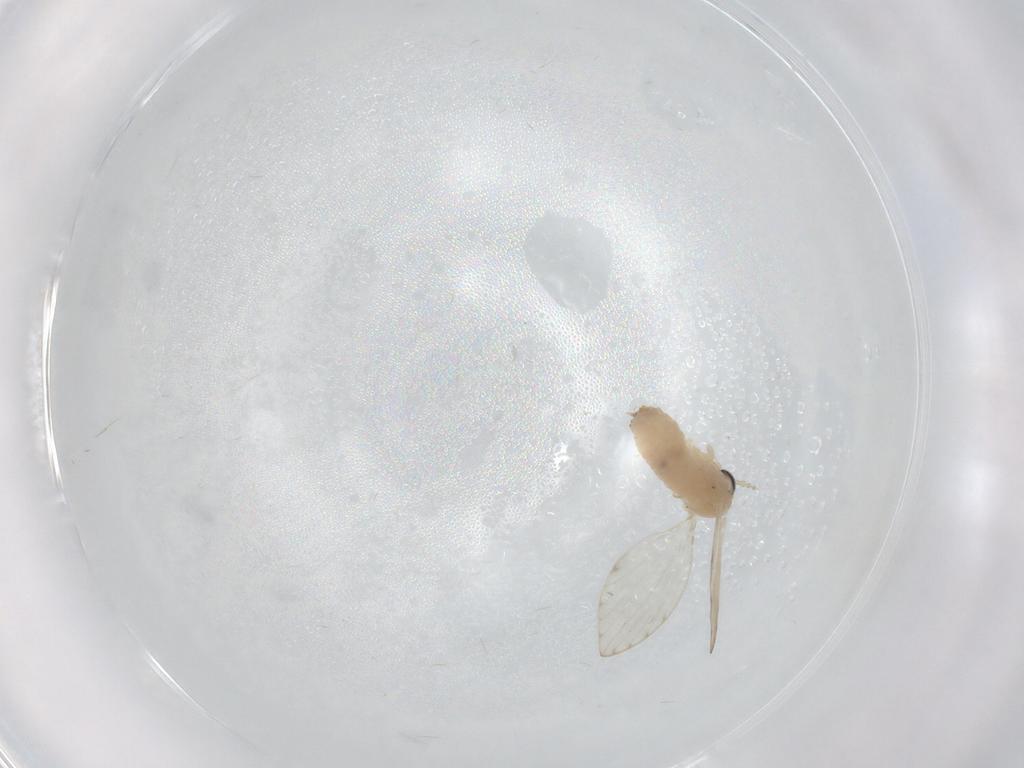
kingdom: Animalia
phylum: Arthropoda
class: Insecta
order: Diptera
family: Psychodidae
